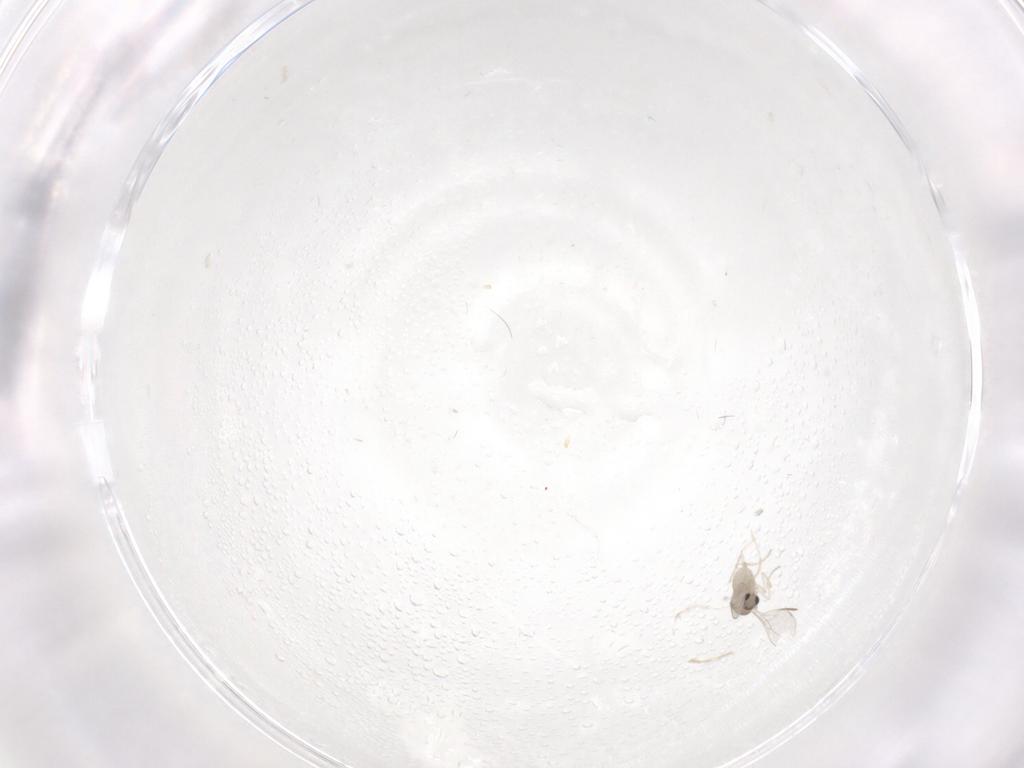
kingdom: Animalia
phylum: Arthropoda
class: Insecta
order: Diptera
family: Cecidomyiidae
